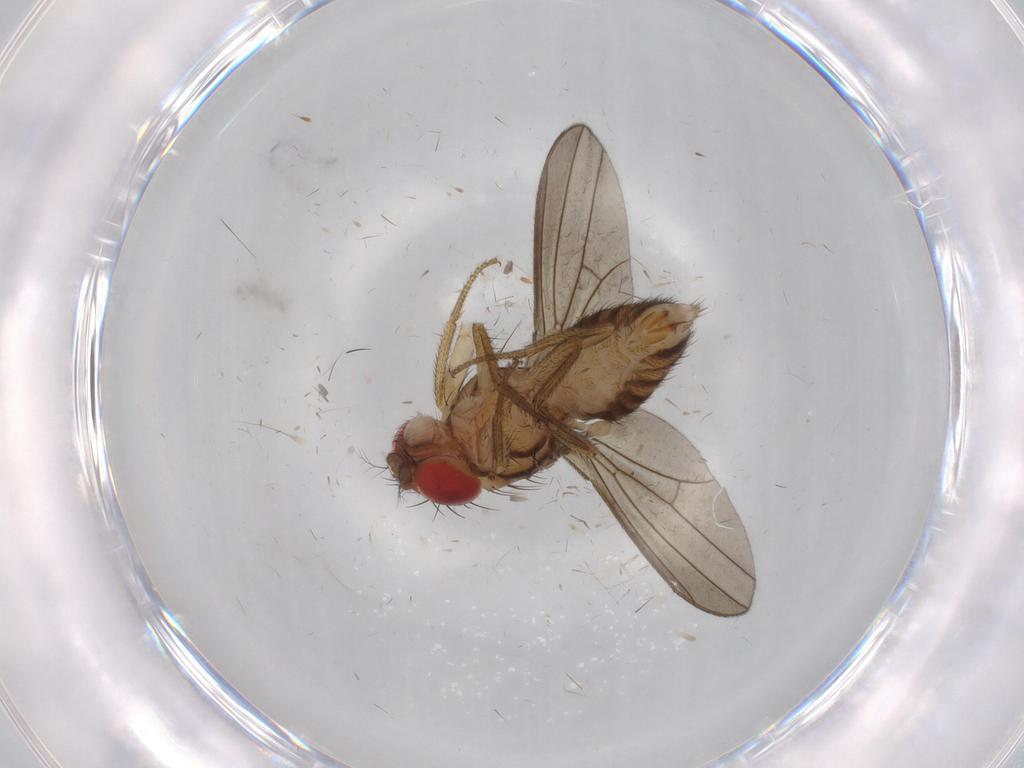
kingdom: Animalia
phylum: Arthropoda
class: Insecta
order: Diptera
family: Drosophilidae
